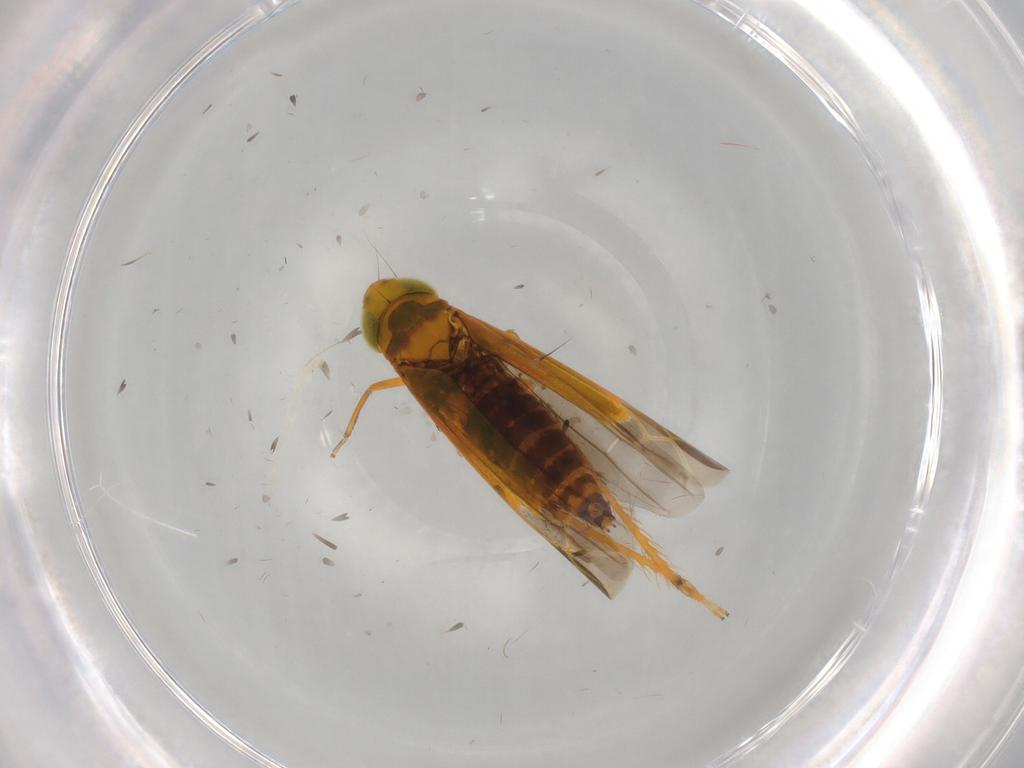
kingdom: Animalia
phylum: Arthropoda
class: Insecta
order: Hemiptera
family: Cicadellidae
